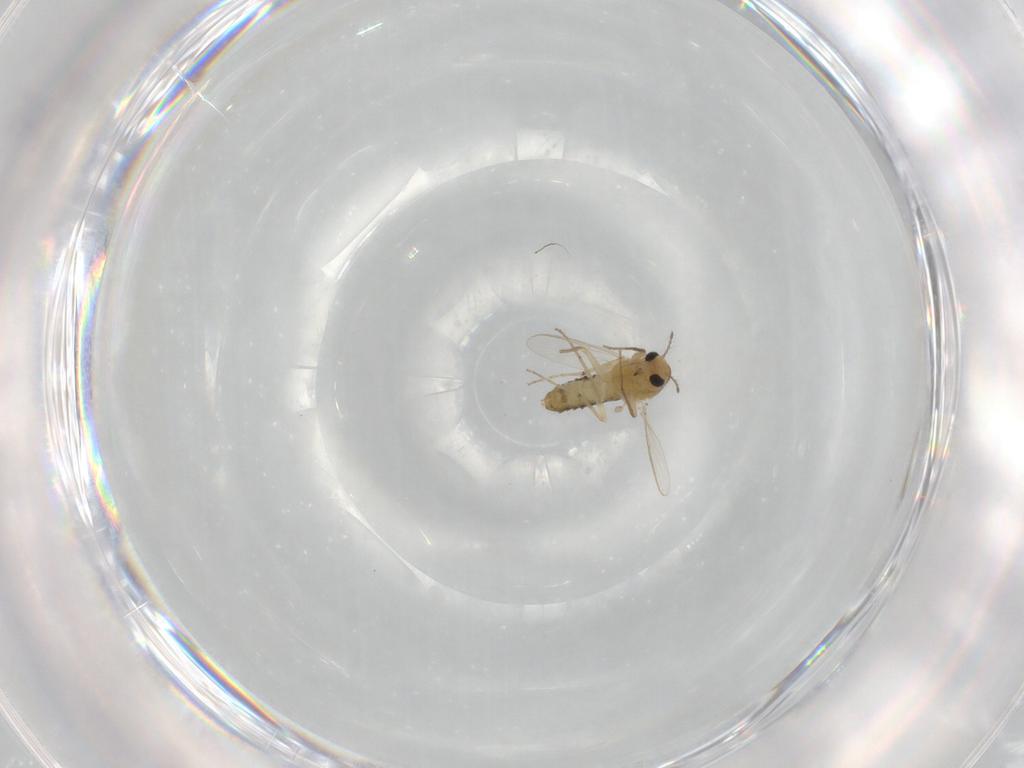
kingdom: Animalia
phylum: Arthropoda
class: Insecta
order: Diptera
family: Chironomidae
